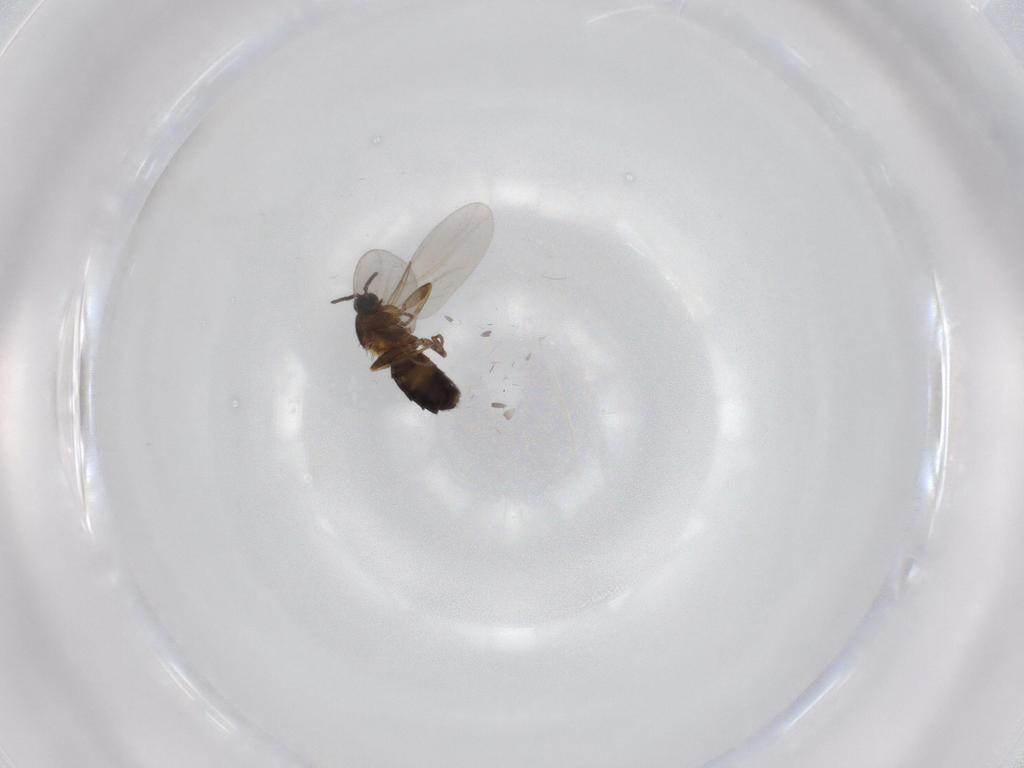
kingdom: Animalia
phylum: Arthropoda
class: Insecta
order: Diptera
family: Scatopsidae
